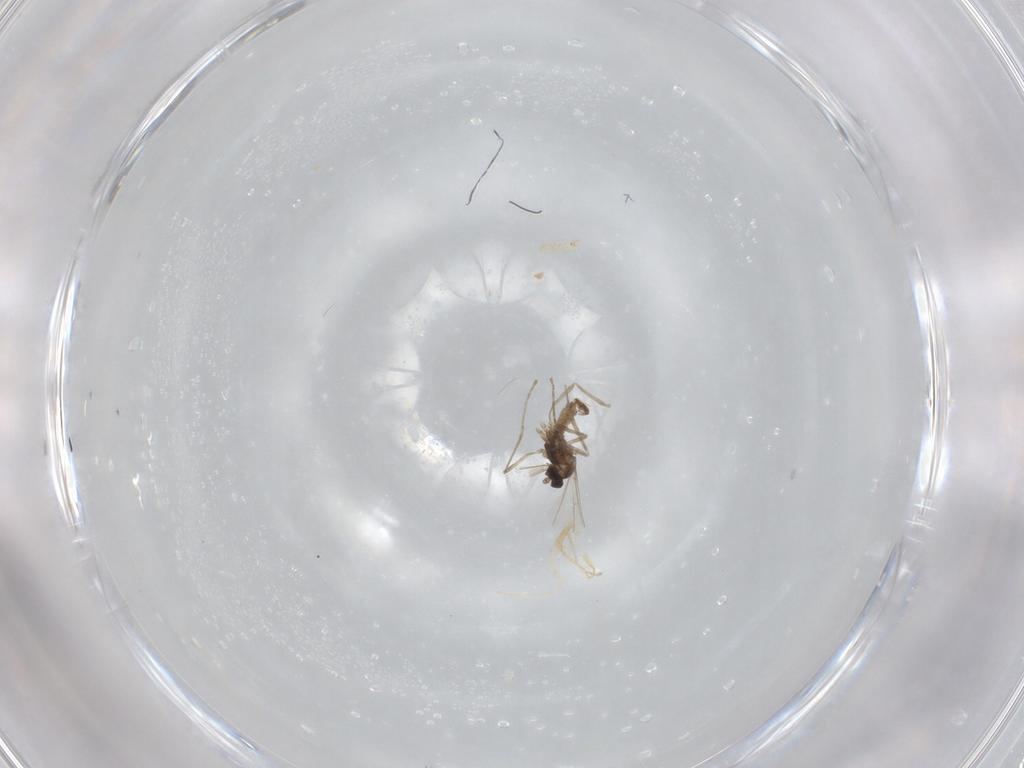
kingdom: Animalia
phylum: Arthropoda
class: Insecta
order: Diptera
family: Cecidomyiidae
